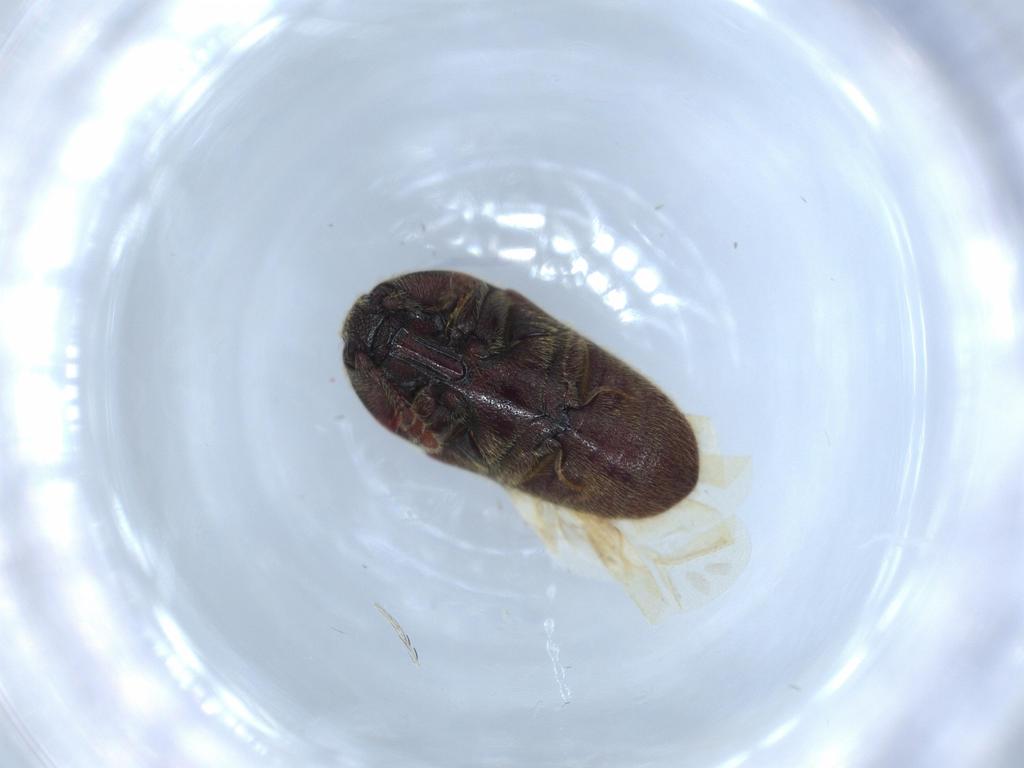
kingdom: Animalia
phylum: Arthropoda
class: Insecta
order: Coleoptera
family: Throscidae
